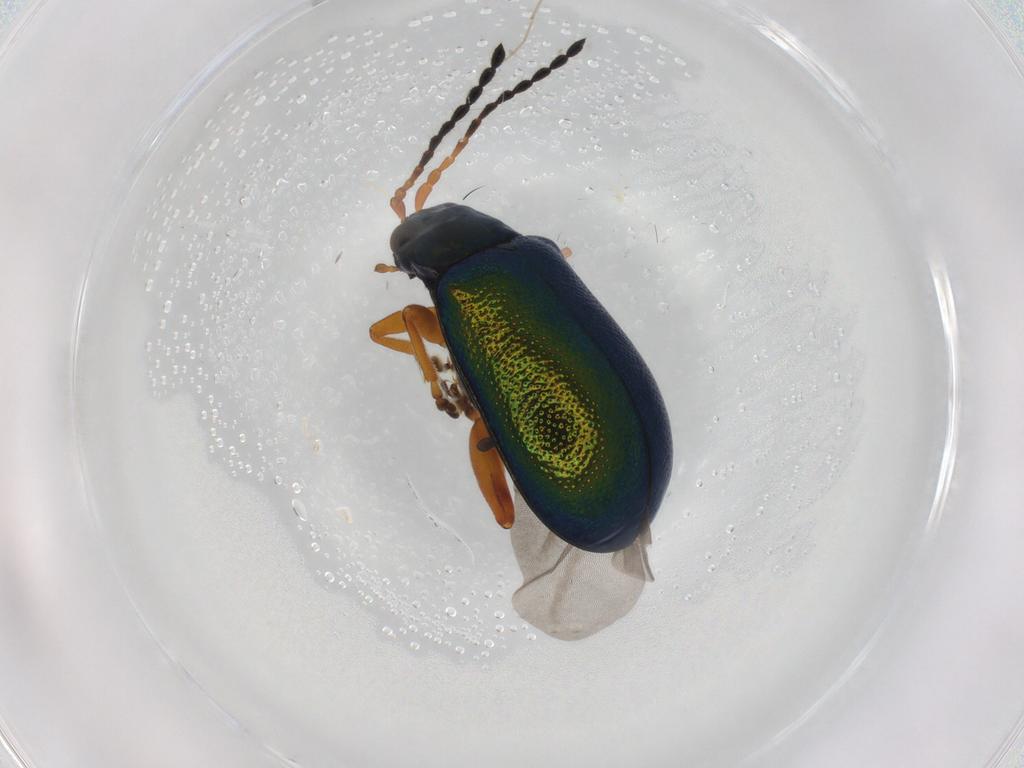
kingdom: Animalia
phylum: Arthropoda
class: Insecta
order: Coleoptera
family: Chrysomelidae
